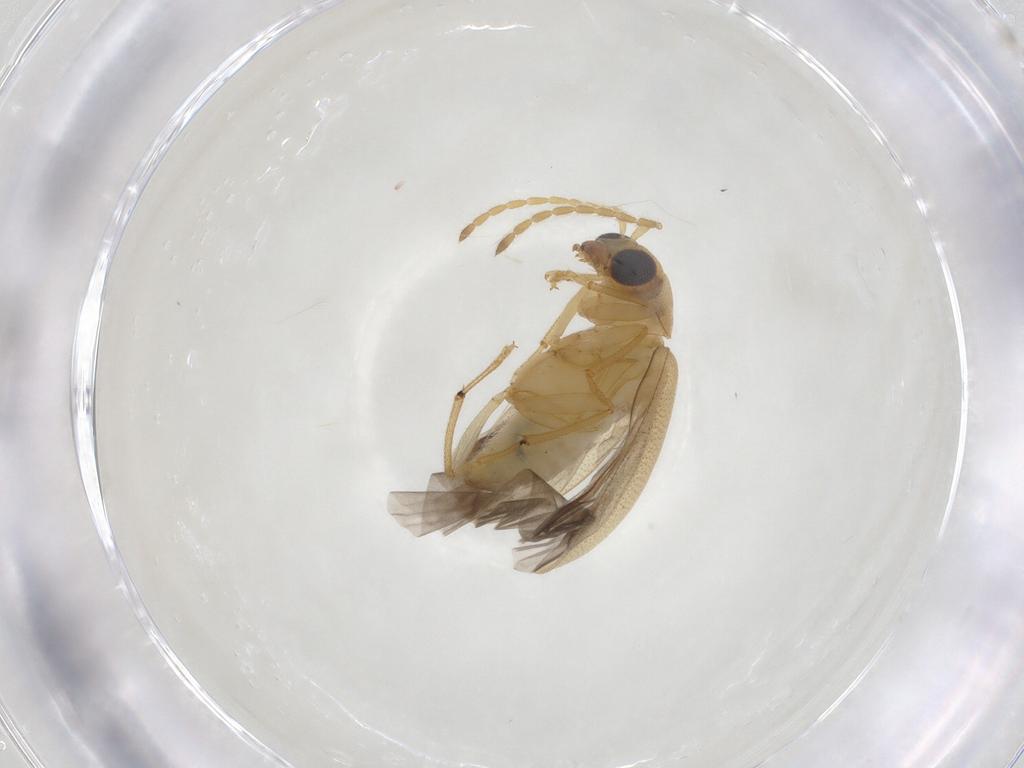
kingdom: Animalia
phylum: Arthropoda
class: Insecta
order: Coleoptera
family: Chrysomelidae
